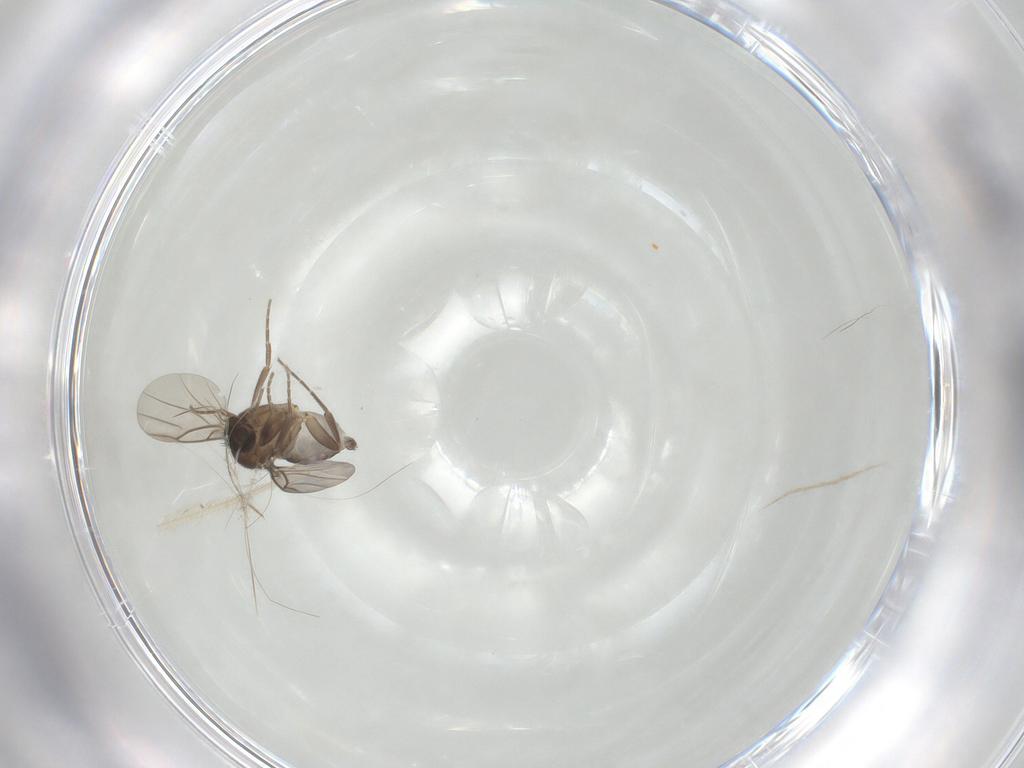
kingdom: Animalia
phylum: Arthropoda
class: Insecta
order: Diptera
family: Phoridae
